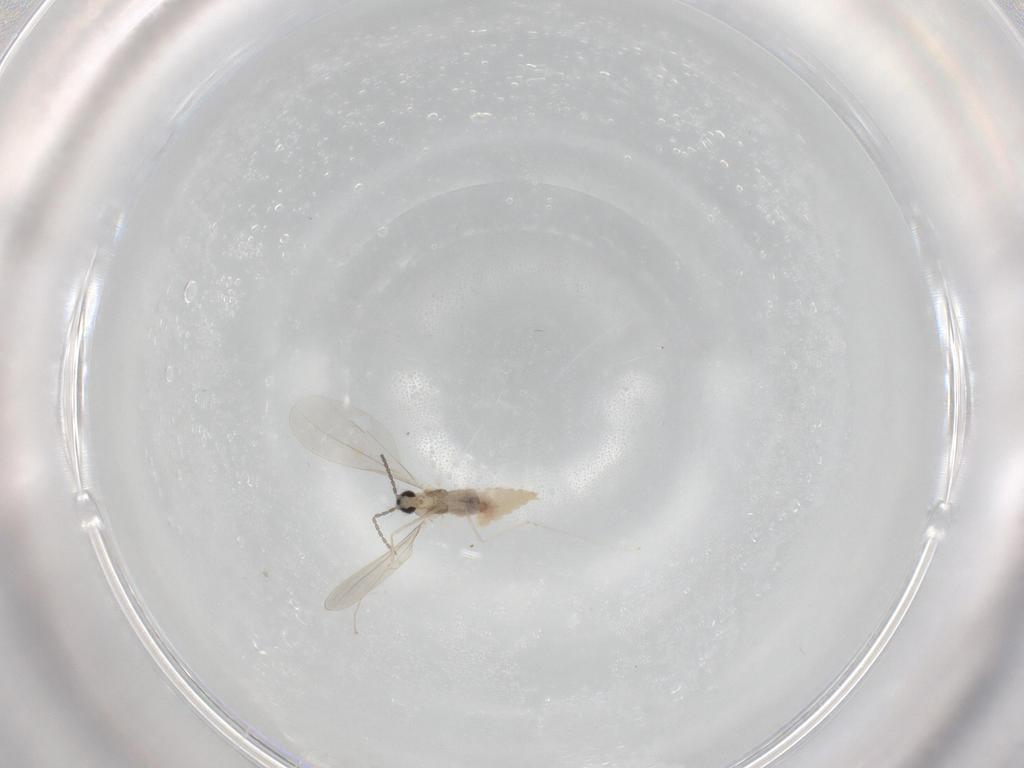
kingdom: Animalia
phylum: Arthropoda
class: Insecta
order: Diptera
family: Cecidomyiidae
